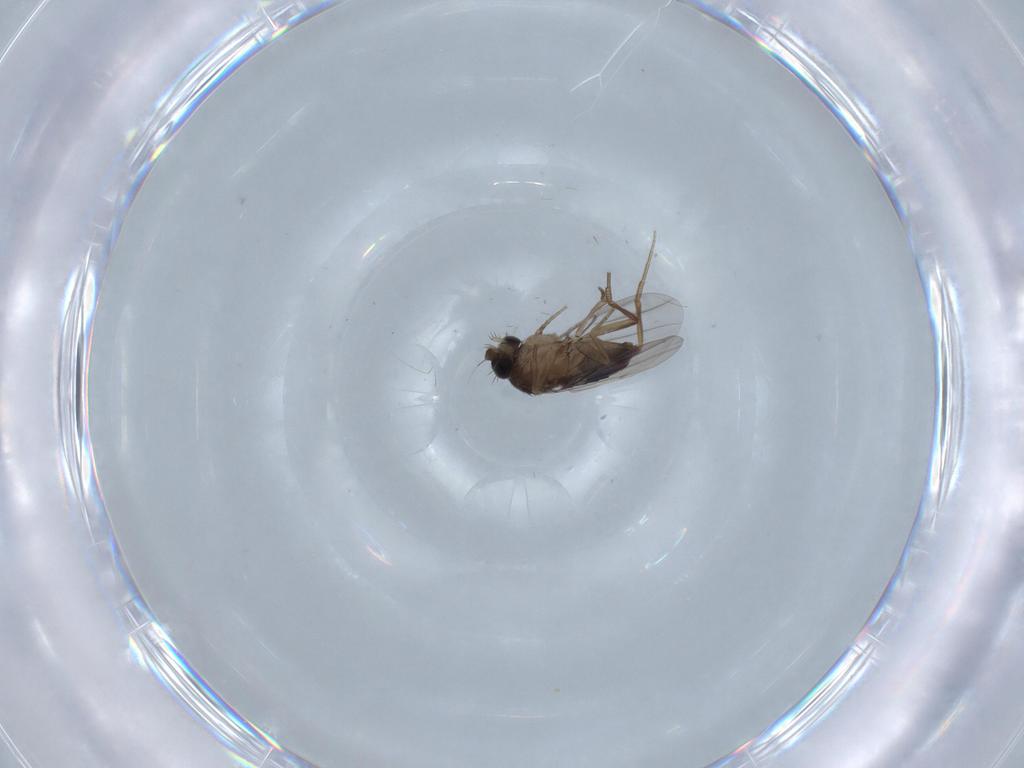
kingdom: Animalia
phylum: Arthropoda
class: Insecta
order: Diptera
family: Phoridae
